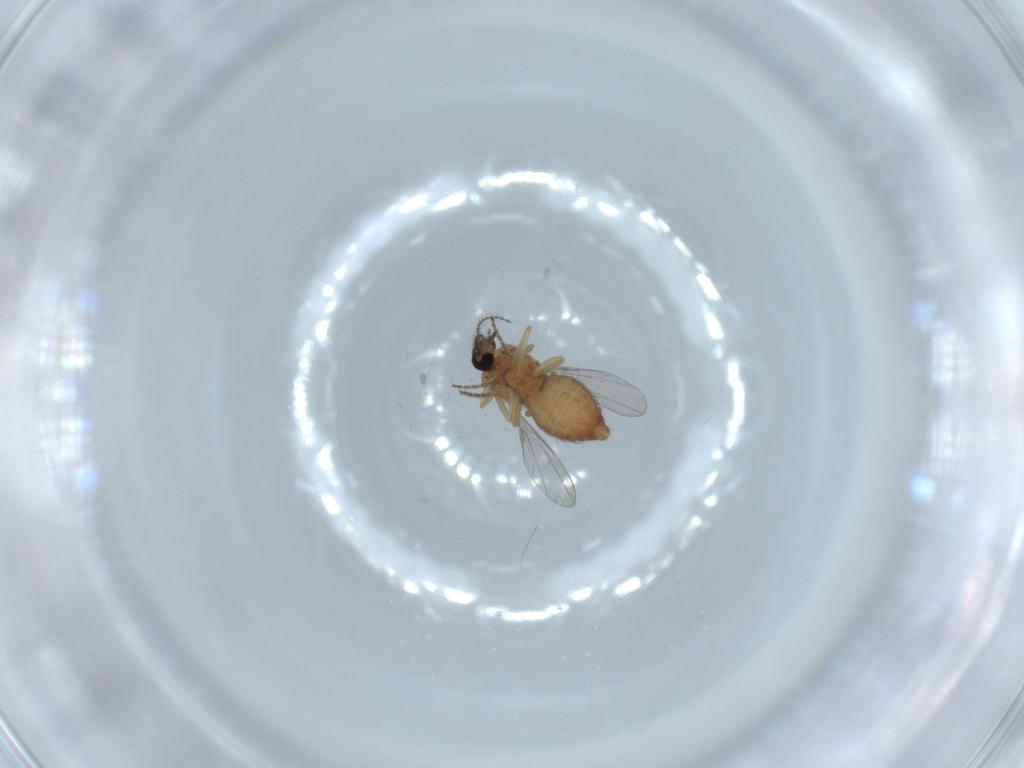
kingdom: Animalia
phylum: Arthropoda
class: Insecta
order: Diptera
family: Ceratopogonidae
